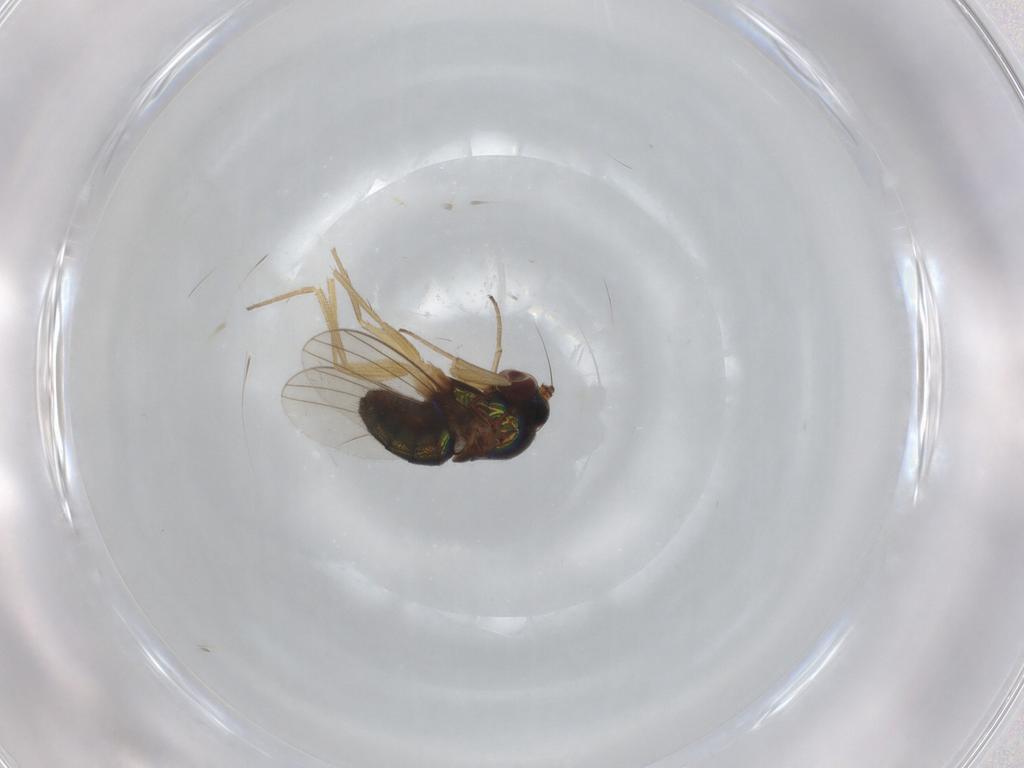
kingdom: Animalia
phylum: Arthropoda
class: Insecta
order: Diptera
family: Dolichopodidae
